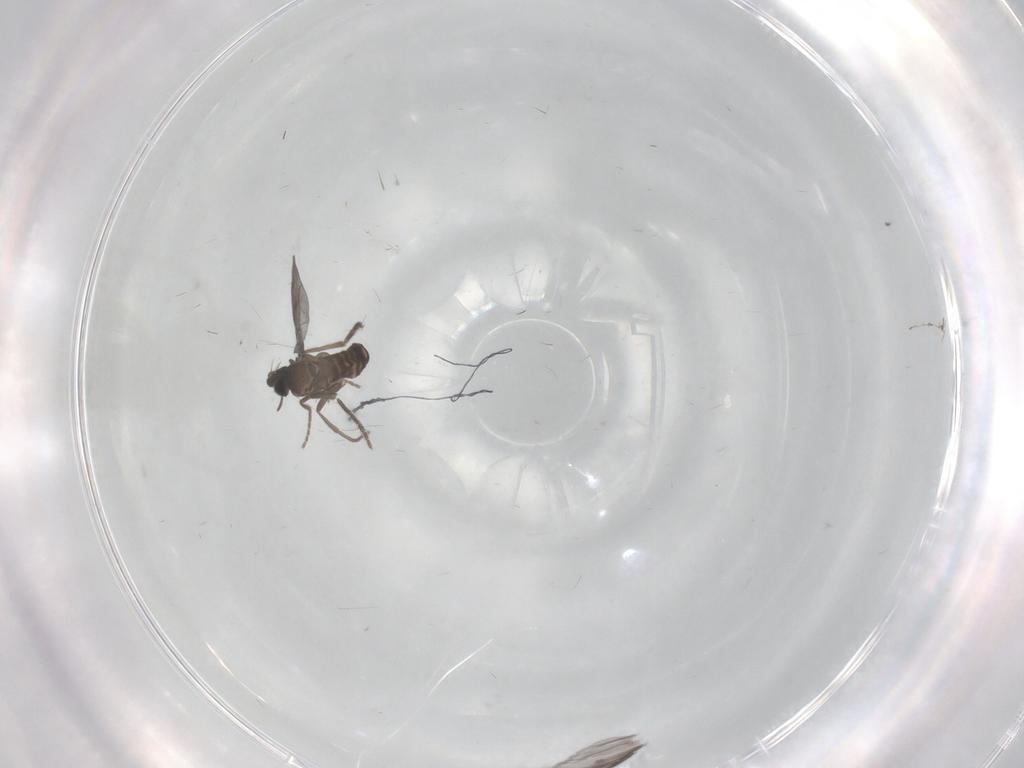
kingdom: Animalia
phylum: Arthropoda
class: Insecta
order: Diptera
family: Phoridae
